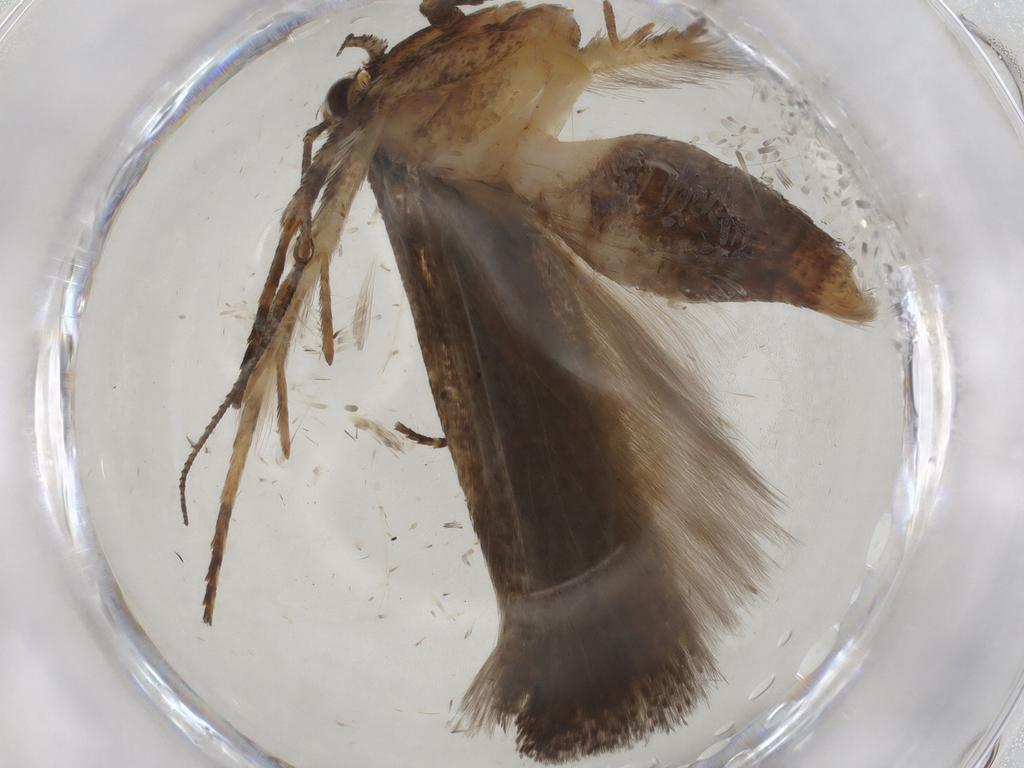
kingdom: Animalia
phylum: Arthropoda
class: Insecta
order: Lepidoptera
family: Gelechiidae
